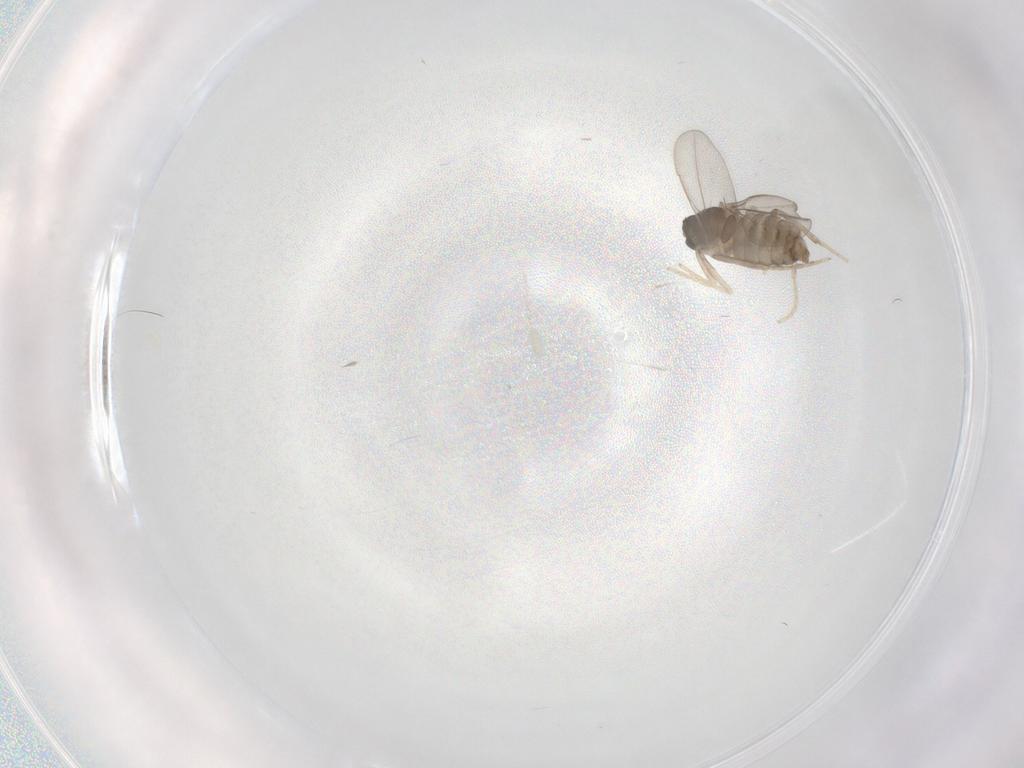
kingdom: Animalia
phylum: Arthropoda
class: Insecta
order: Diptera
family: Cecidomyiidae
